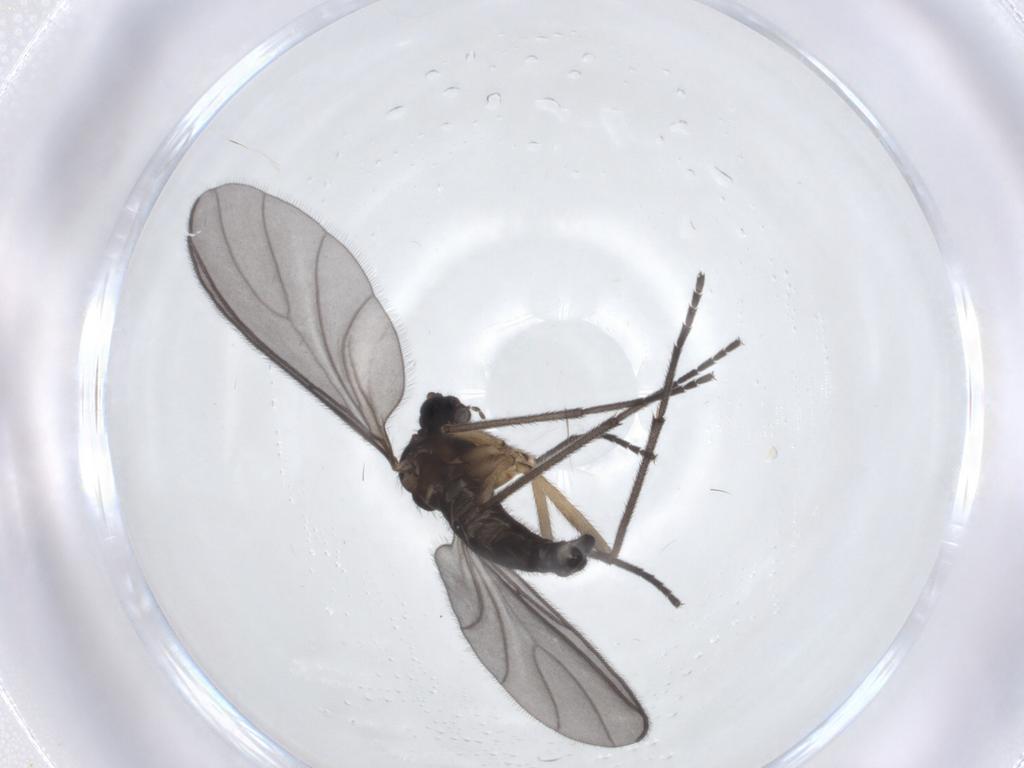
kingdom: Animalia
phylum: Arthropoda
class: Insecta
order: Diptera
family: Sciaridae
